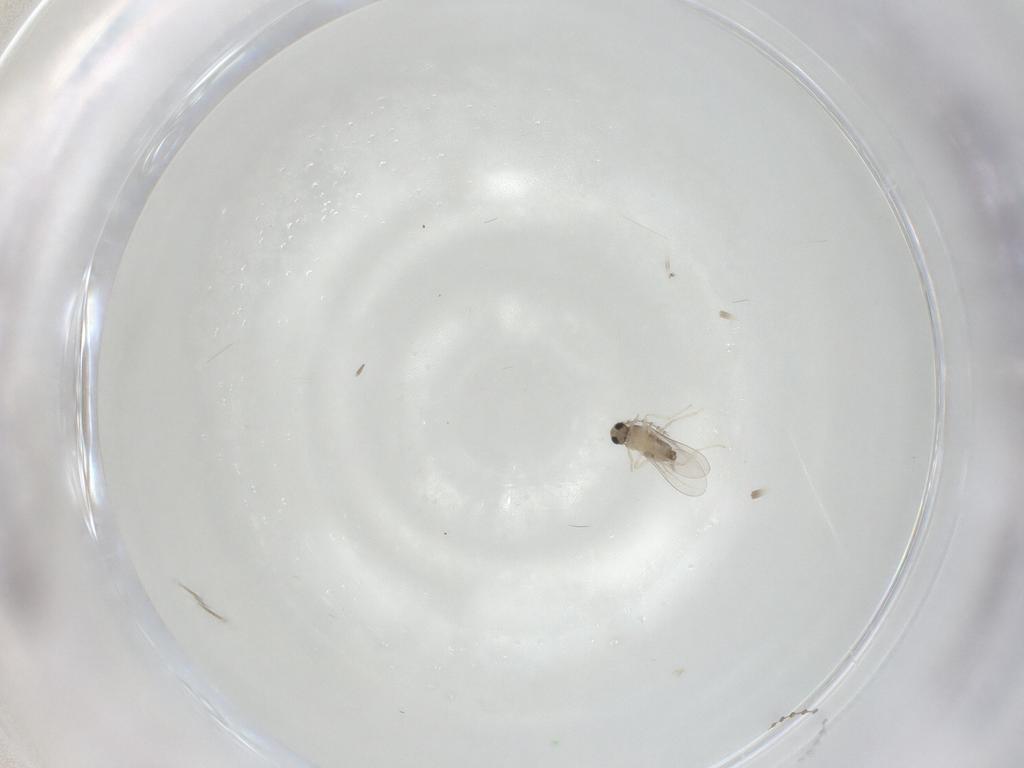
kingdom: Animalia
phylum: Arthropoda
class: Insecta
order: Diptera
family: Cecidomyiidae
